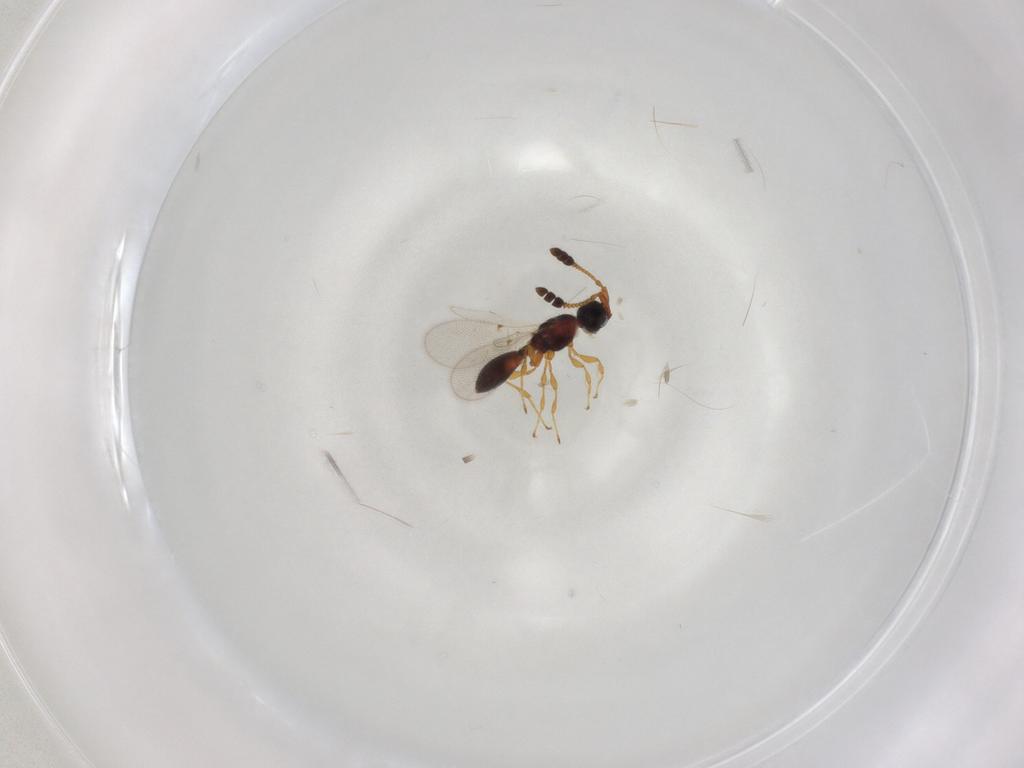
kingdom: Animalia
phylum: Arthropoda
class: Insecta
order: Hymenoptera
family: Diapriidae
